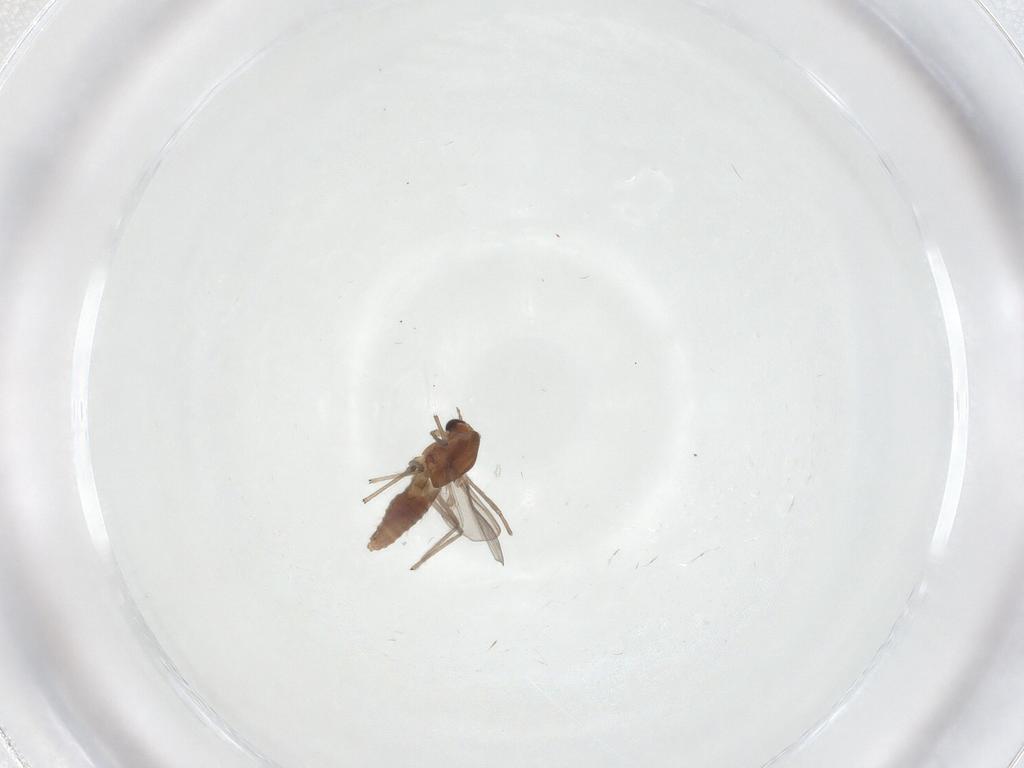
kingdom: Animalia
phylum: Arthropoda
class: Insecta
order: Diptera
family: Chironomidae
